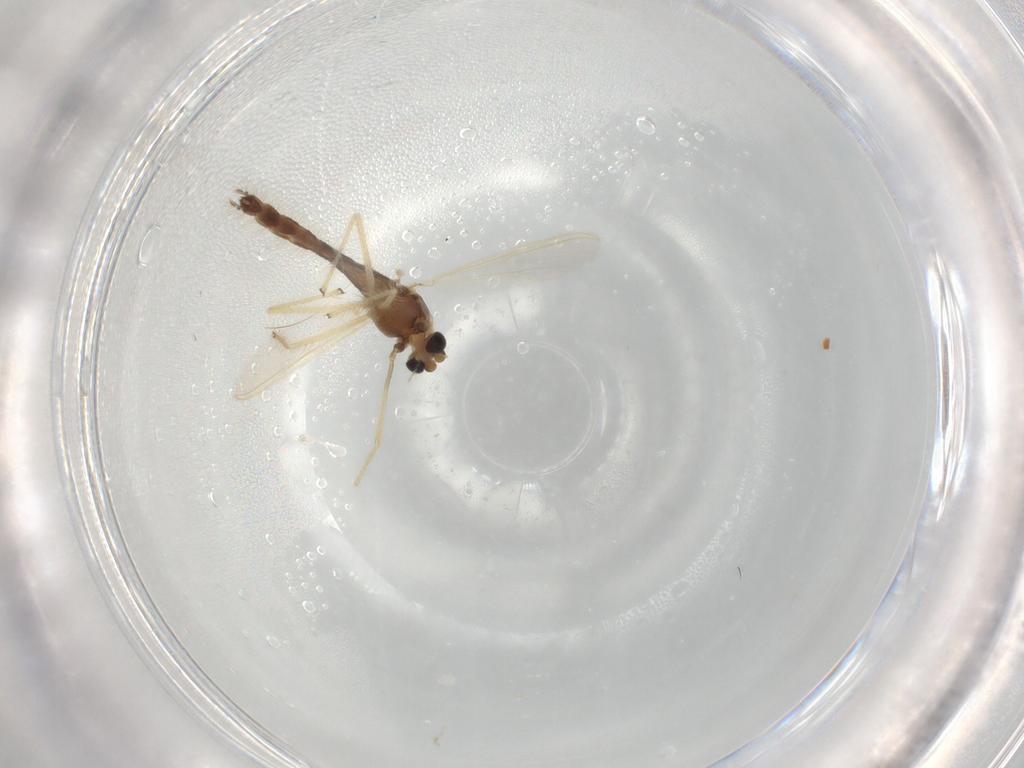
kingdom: Animalia
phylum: Arthropoda
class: Insecta
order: Diptera
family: Chironomidae
